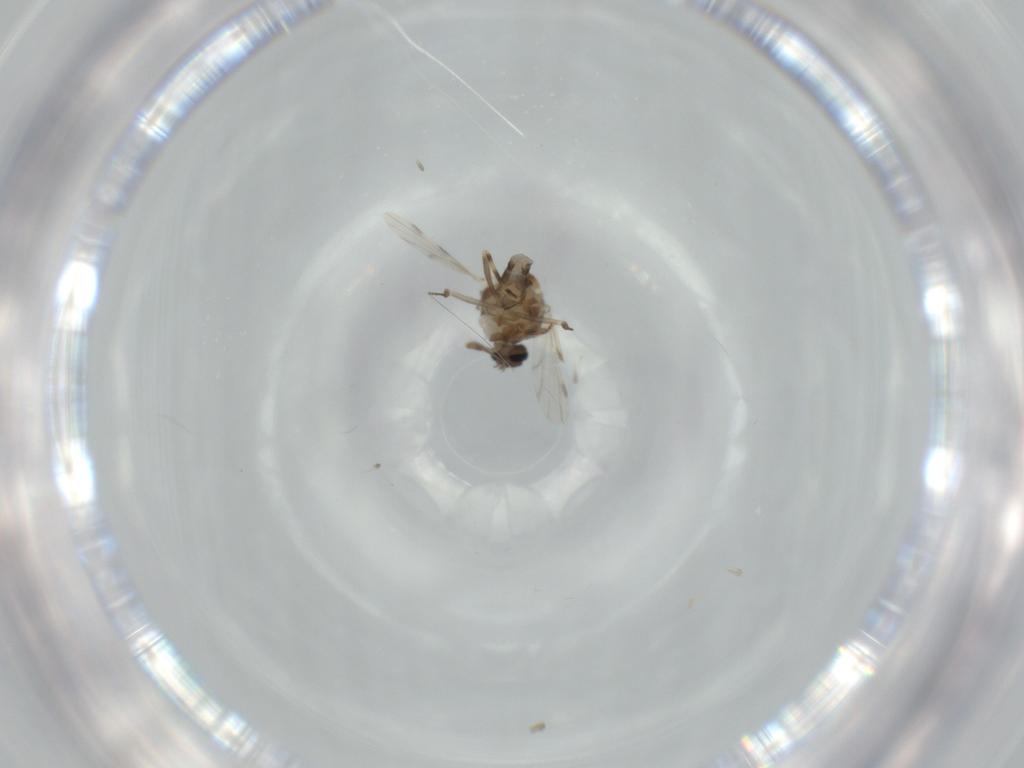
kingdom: Animalia
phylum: Arthropoda
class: Insecta
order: Diptera
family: Ceratopogonidae
